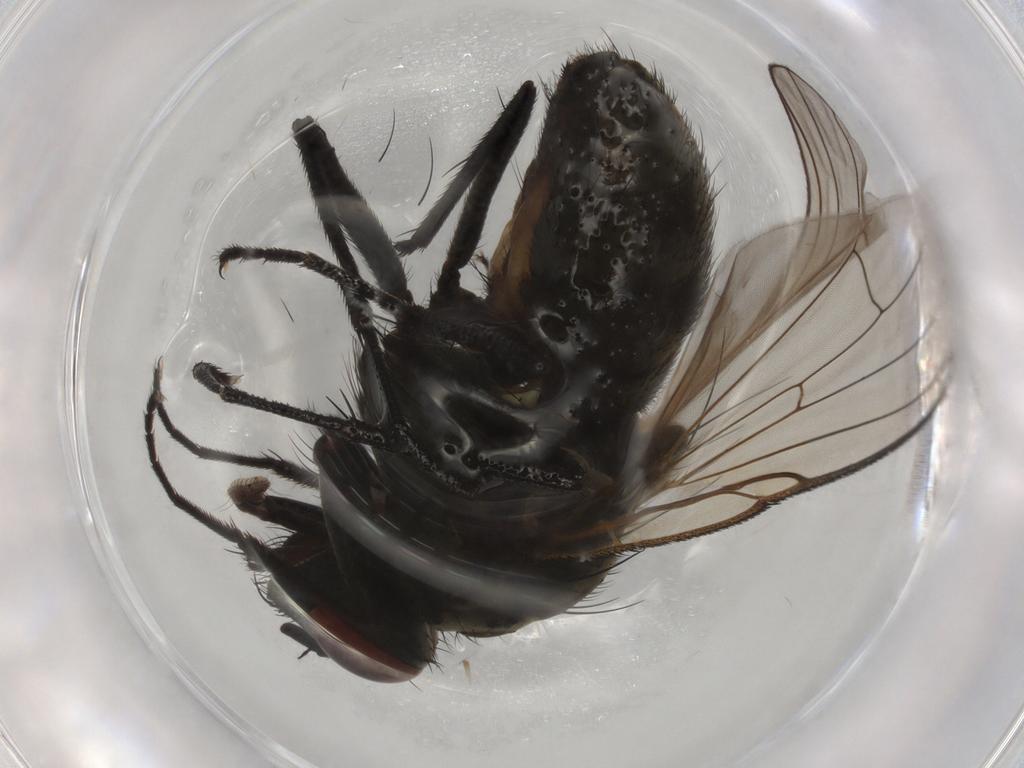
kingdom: Animalia
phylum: Arthropoda
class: Insecta
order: Diptera
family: Muscidae
